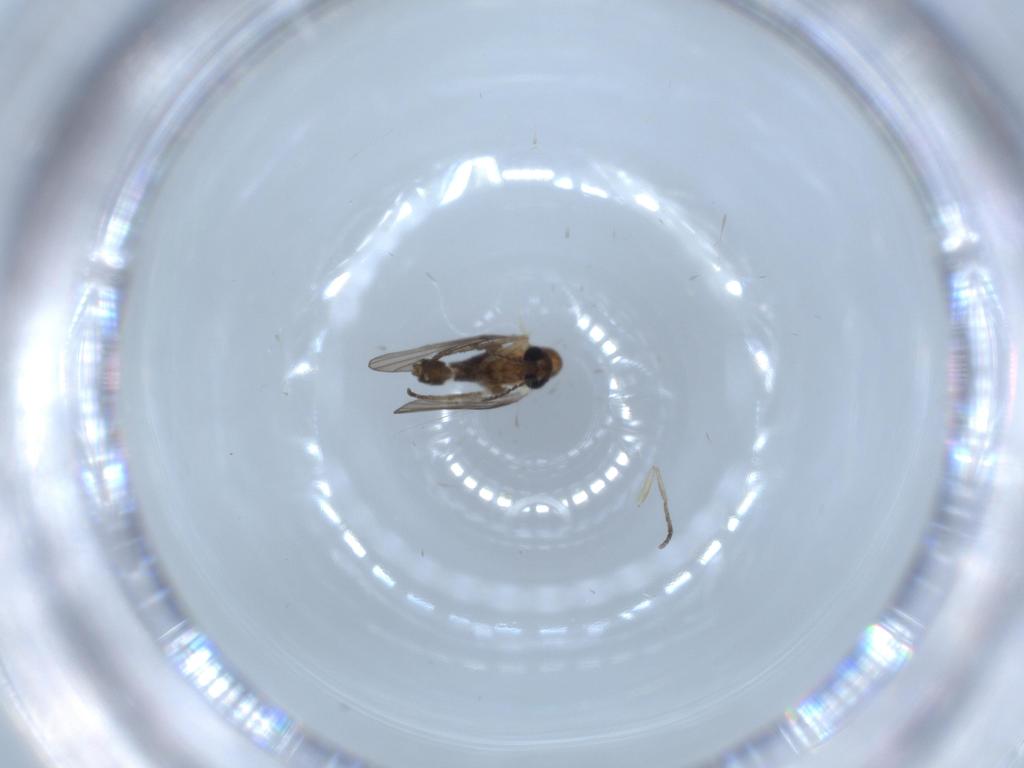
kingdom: Animalia
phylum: Arthropoda
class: Insecta
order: Diptera
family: Psychodidae
